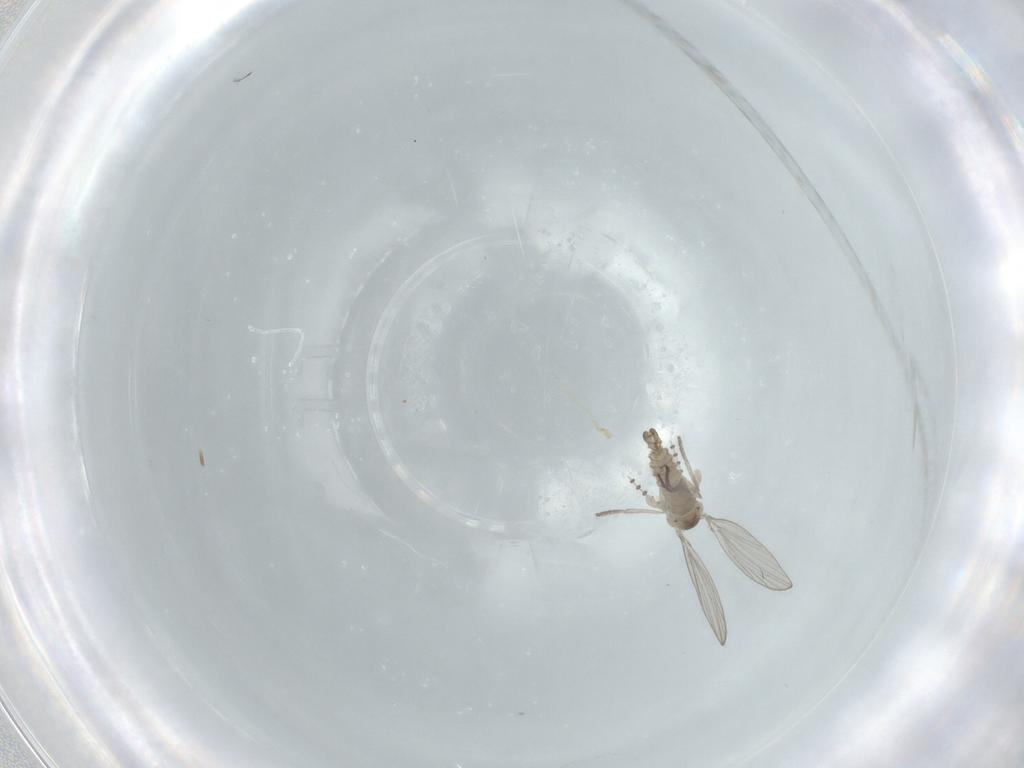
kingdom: Animalia
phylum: Arthropoda
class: Insecta
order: Diptera
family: Psychodidae
